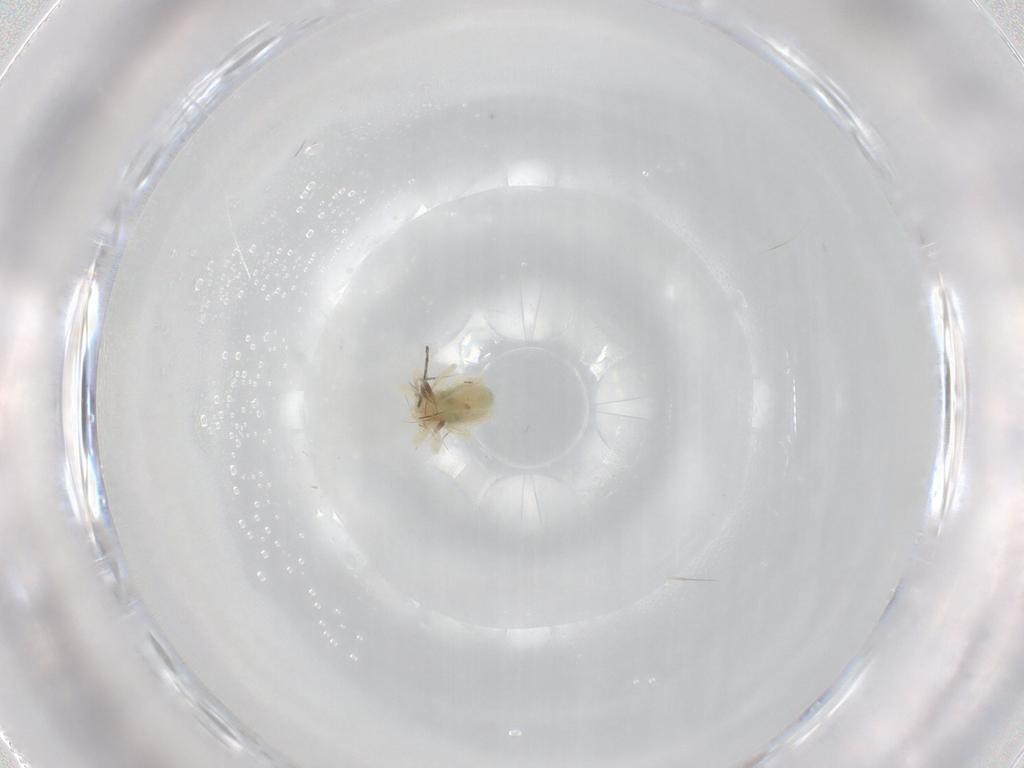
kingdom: Animalia
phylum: Arthropoda
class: Arachnida
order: Trombidiformes
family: Anystidae
